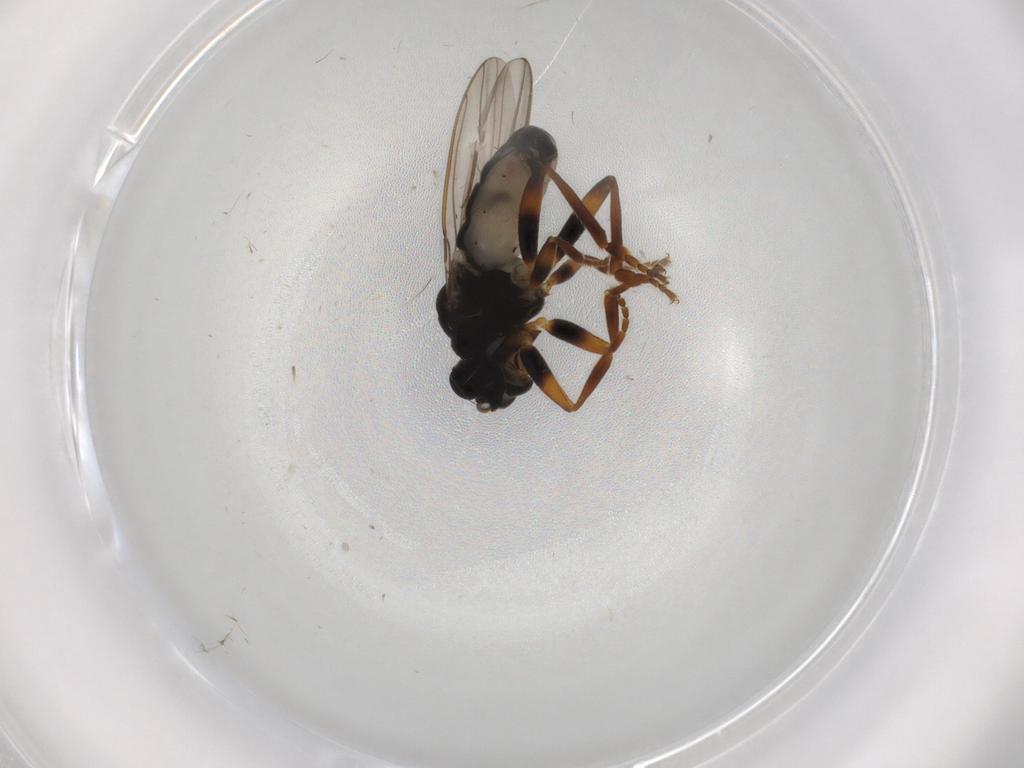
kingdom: Animalia
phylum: Arthropoda
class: Insecta
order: Diptera
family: Sphaeroceridae
